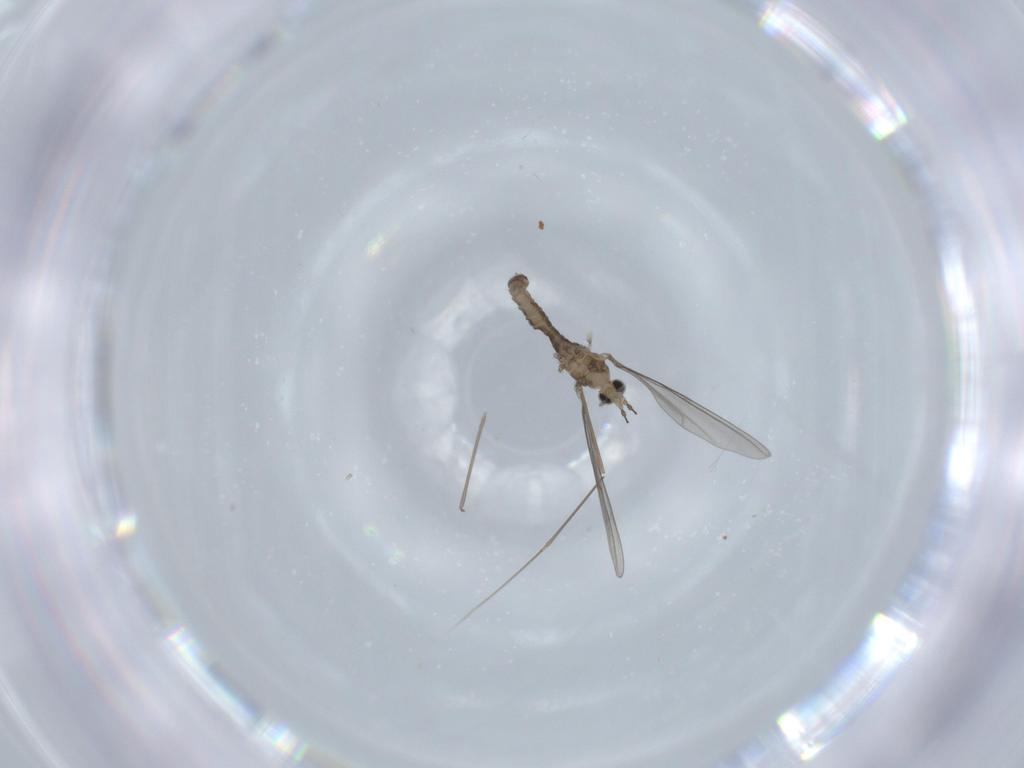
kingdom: Animalia
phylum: Arthropoda
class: Insecta
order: Diptera
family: Cecidomyiidae
